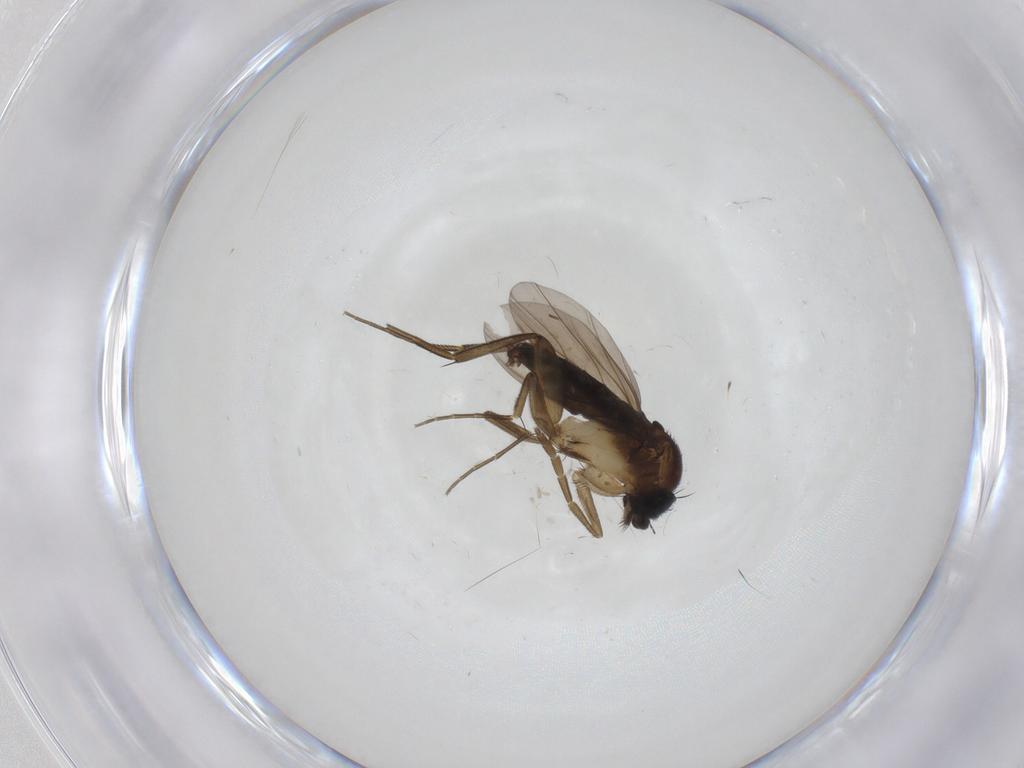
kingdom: Animalia
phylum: Arthropoda
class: Insecta
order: Diptera
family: Phoridae
